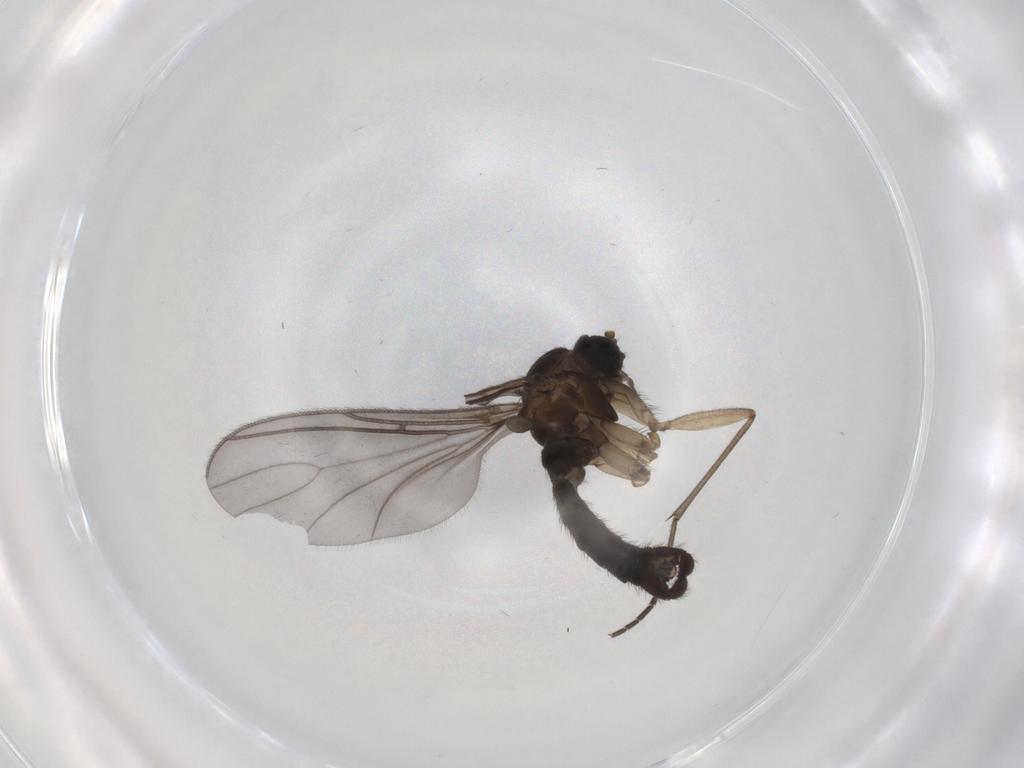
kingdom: Animalia
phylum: Arthropoda
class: Insecta
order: Diptera
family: Sciaridae
